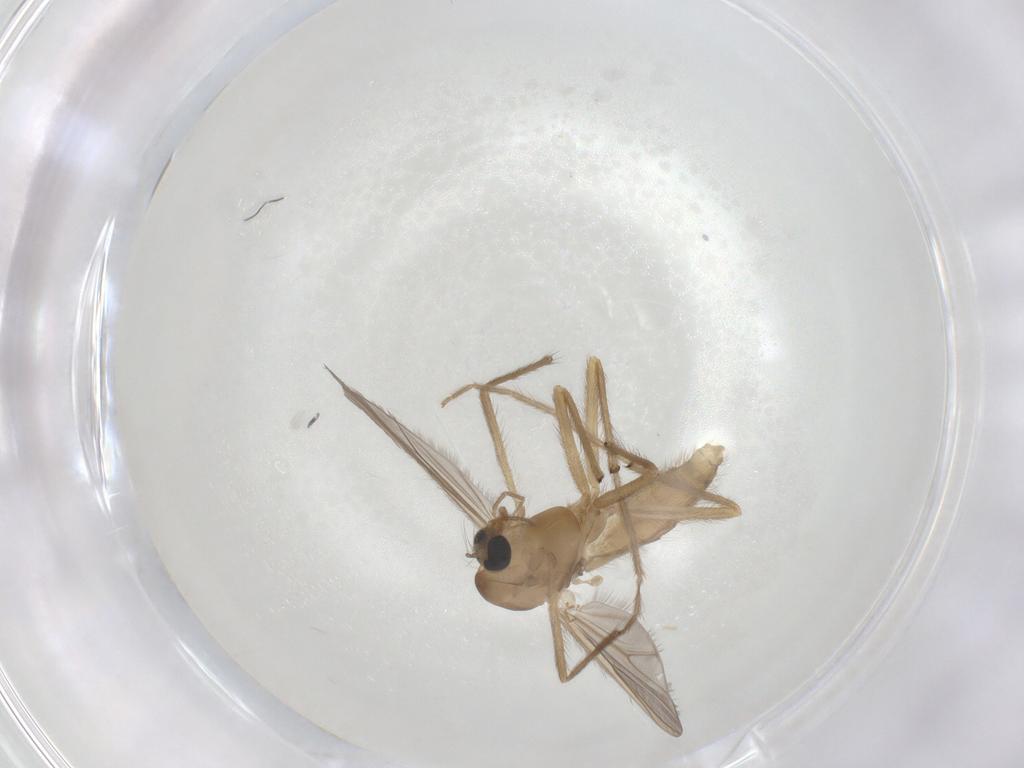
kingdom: Animalia
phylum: Arthropoda
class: Insecta
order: Diptera
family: Chironomidae
